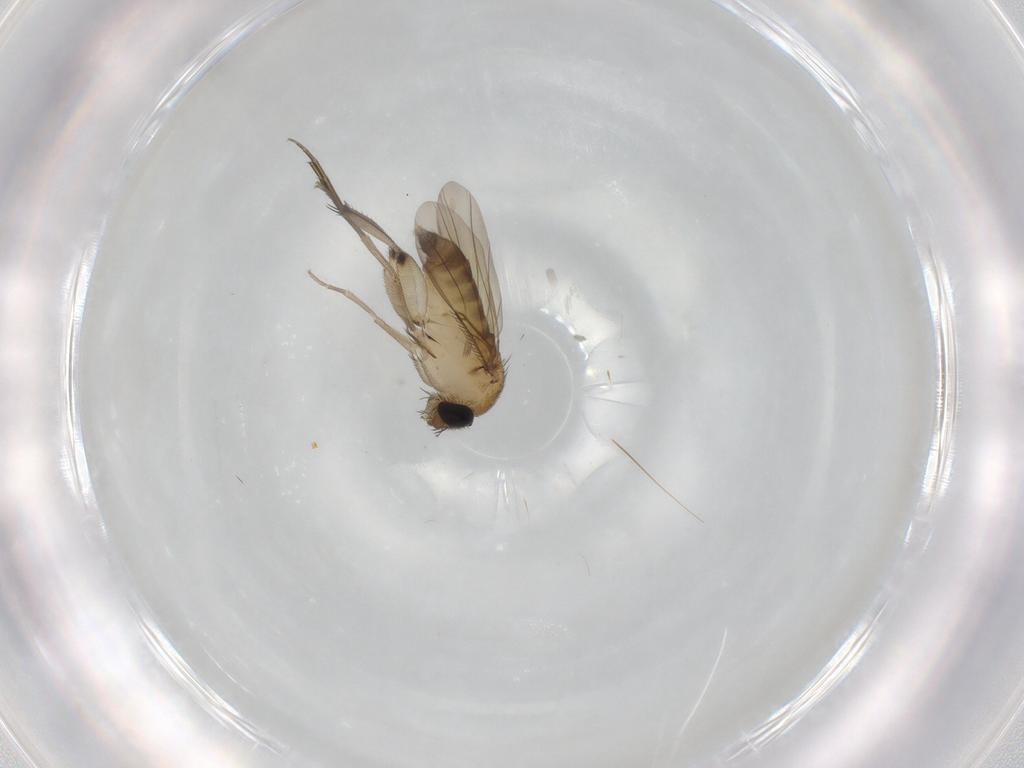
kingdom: Animalia
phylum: Arthropoda
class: Insecta
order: Diptera
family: Phoridae
